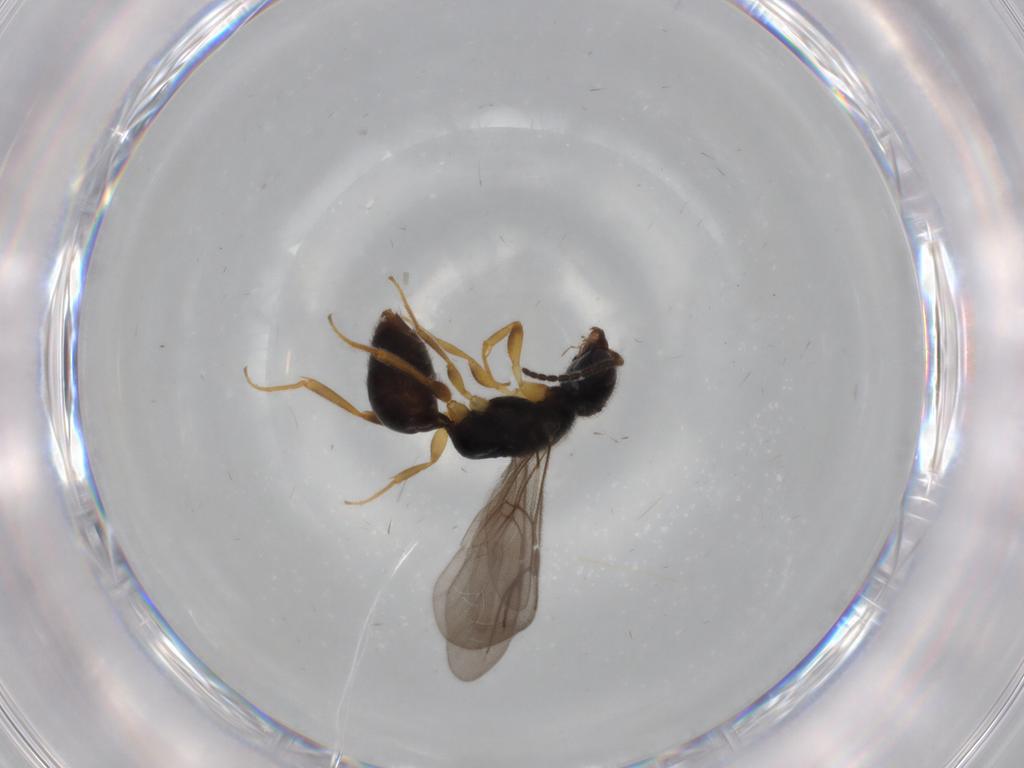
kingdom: Animalia
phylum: Arthropoda
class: Insecta
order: Hymenoptera
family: Diapriidae
